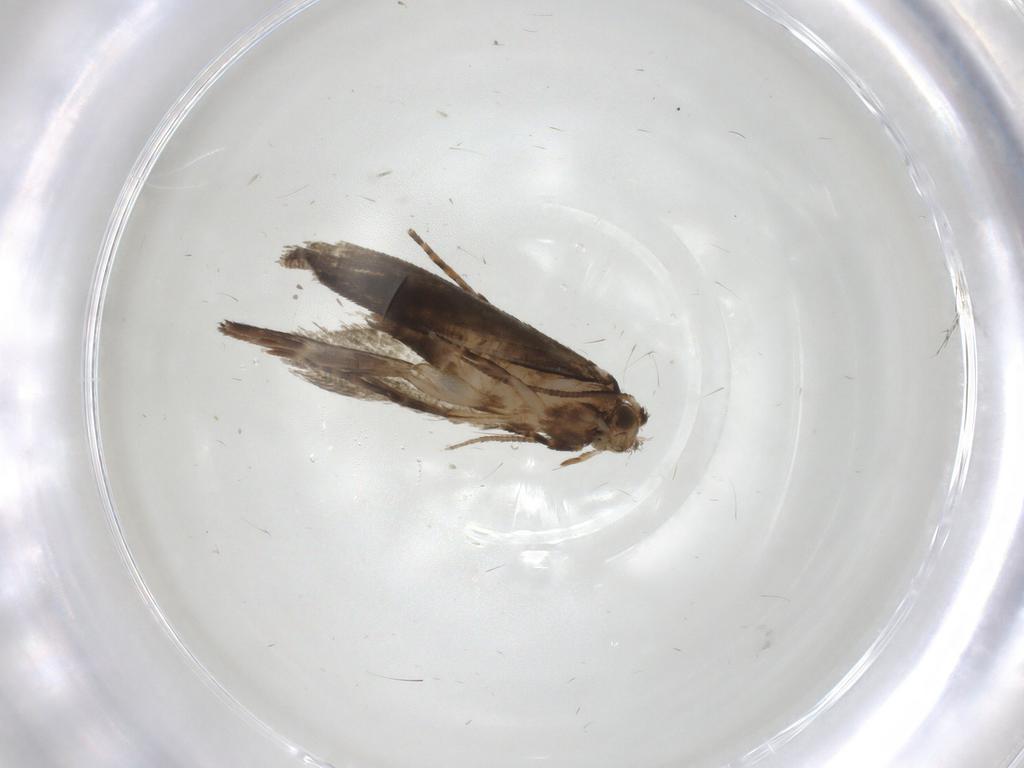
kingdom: Animalia
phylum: Arthropoda
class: Insecta
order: Lepidoptera
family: Tineidae
